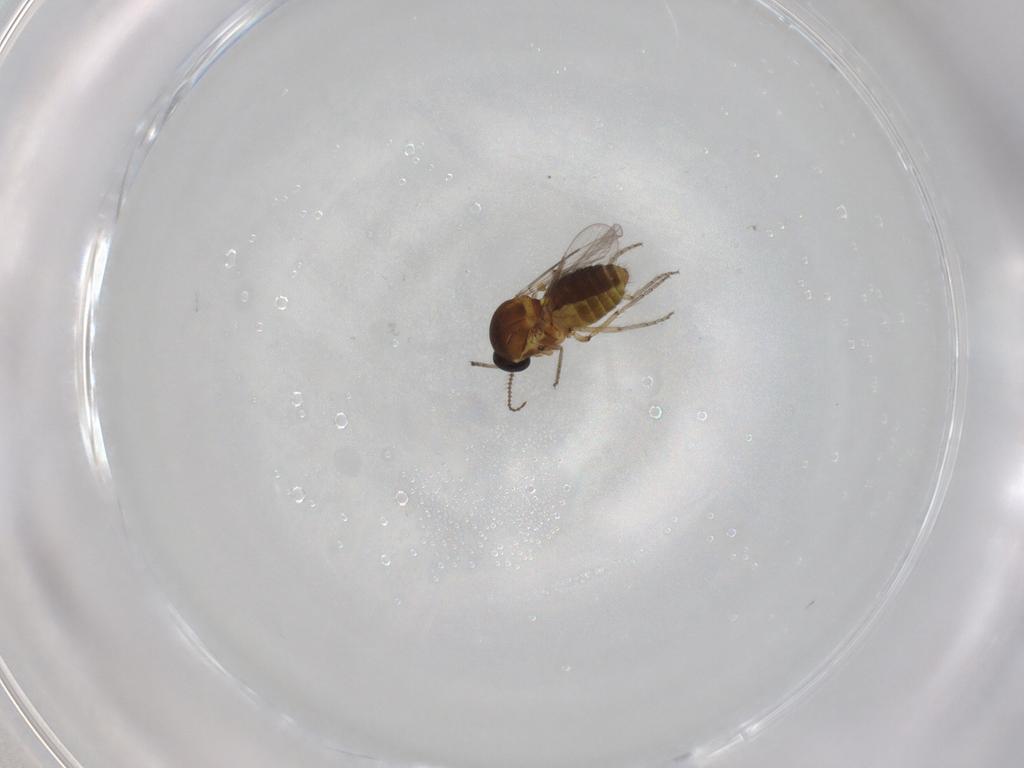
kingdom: Animalia
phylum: Arthropoda
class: Insecta
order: Diptera
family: Ceratopogonidae
